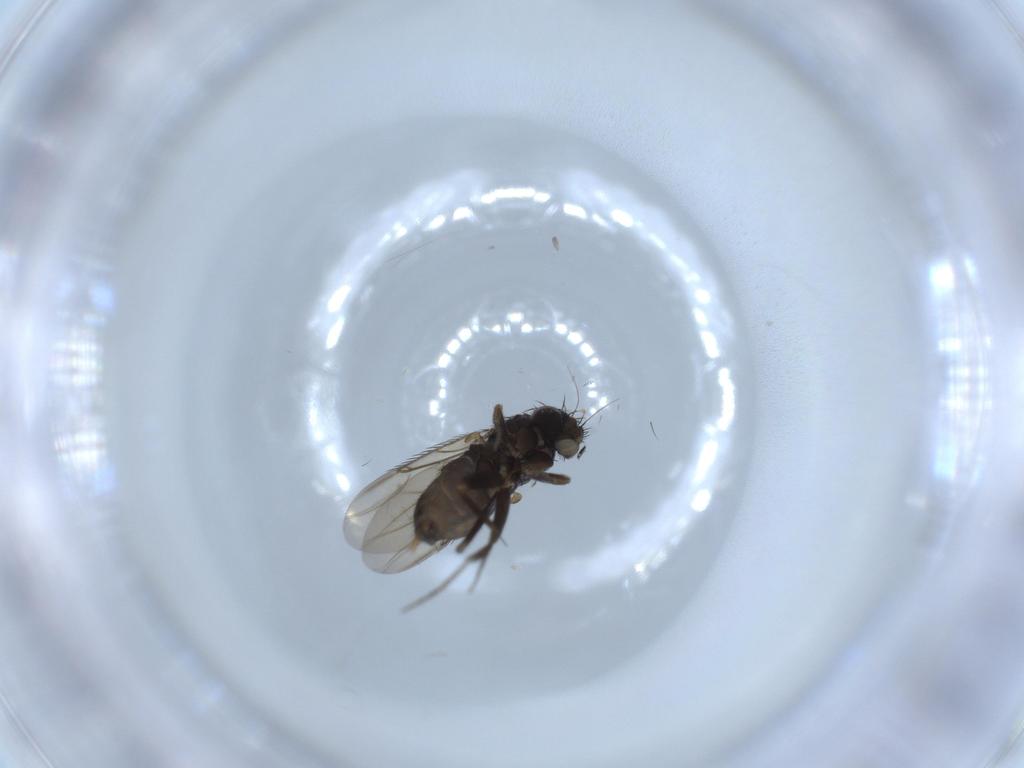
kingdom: Animalia
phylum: Arthropoda
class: Insecta
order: Diptera
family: Phoridae
